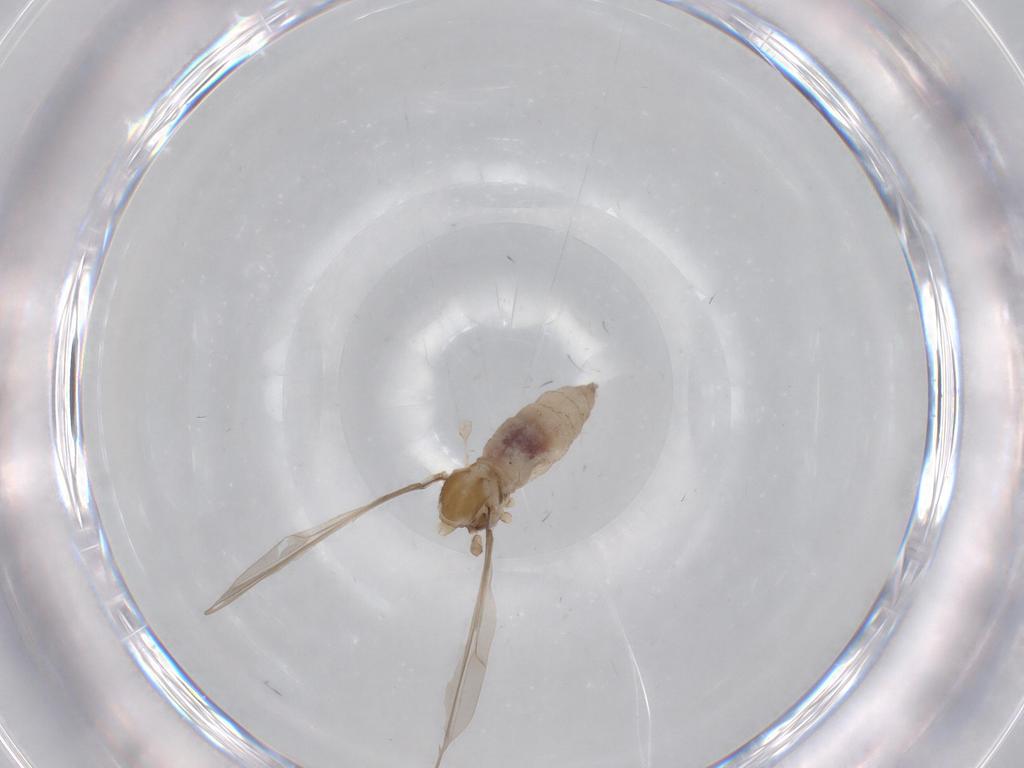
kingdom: Animalia
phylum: Arthropoda
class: Insecta
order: Diptera
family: Cecidomyiidae
